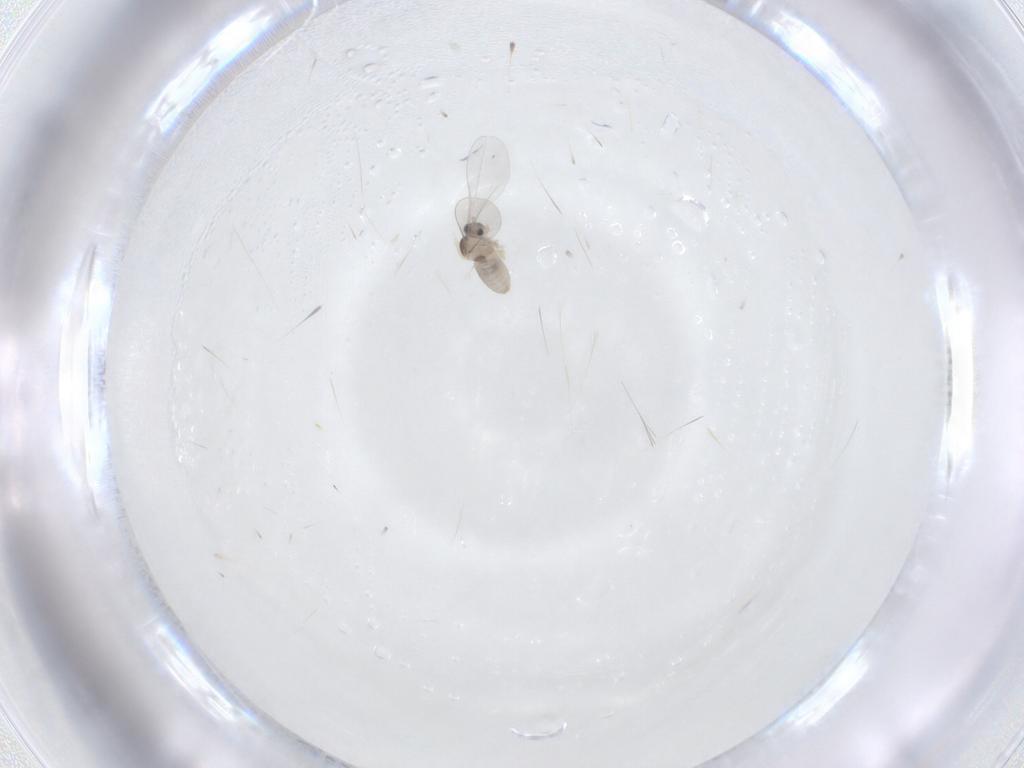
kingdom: Animalia
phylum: Arthropoda
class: Insecta
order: Diptera
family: Cecidomyiidae
